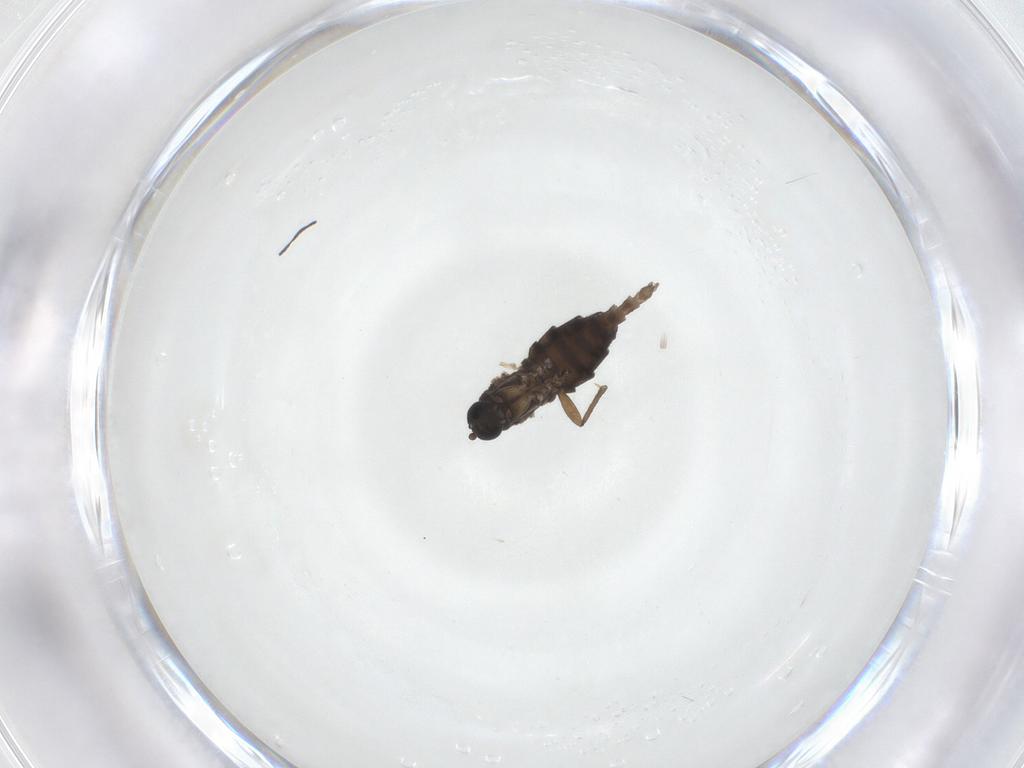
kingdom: Animalia
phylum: Arthropoda
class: Insecta
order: Diptera
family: Sciaridae
